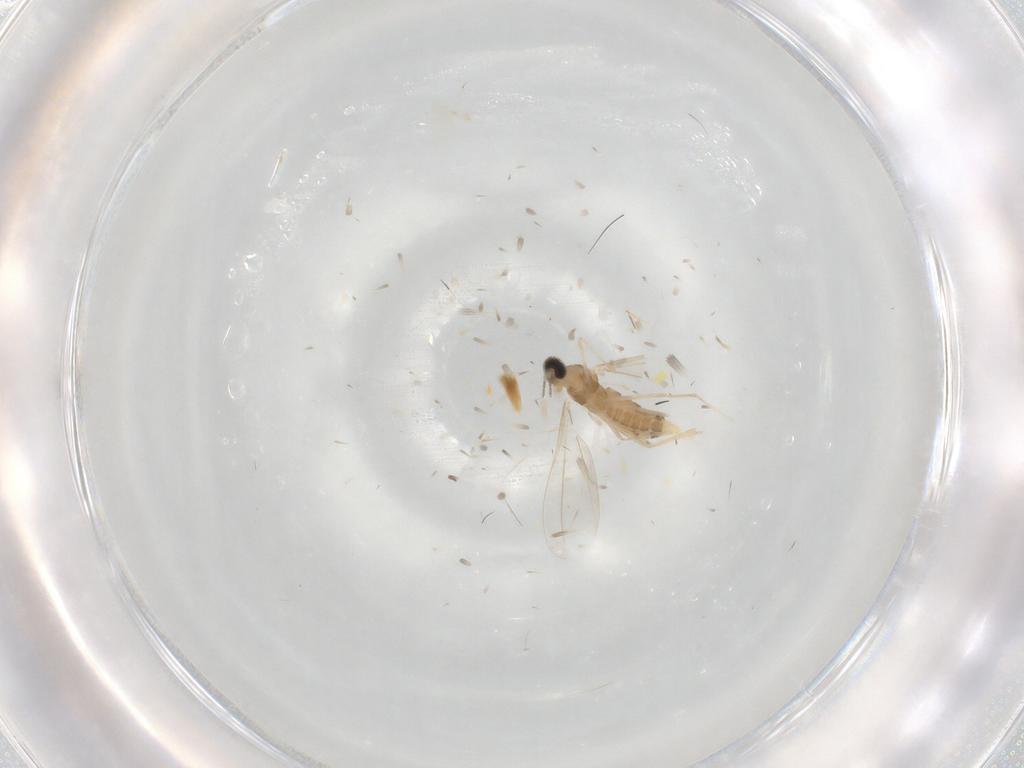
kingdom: Animalia
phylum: Arthropoda
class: Insecta
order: Diptera
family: Cecidomyiidae
